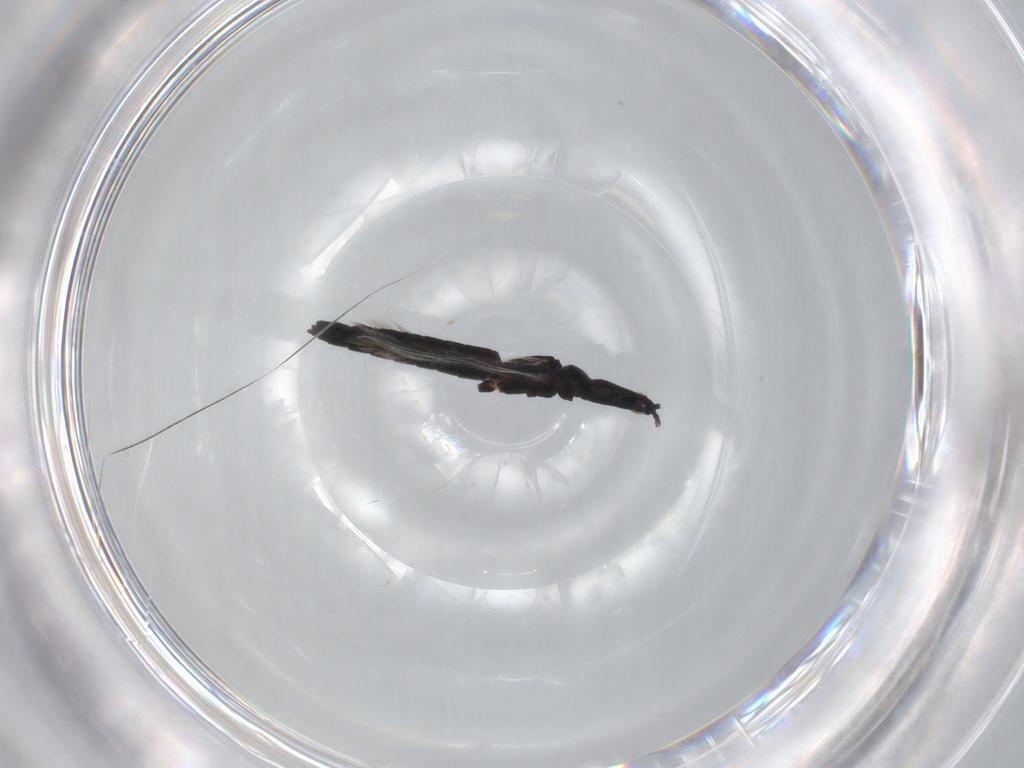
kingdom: Animalia
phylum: Arthropoda
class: Insecta
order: Thysanoptera
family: Phlaeothripidae
